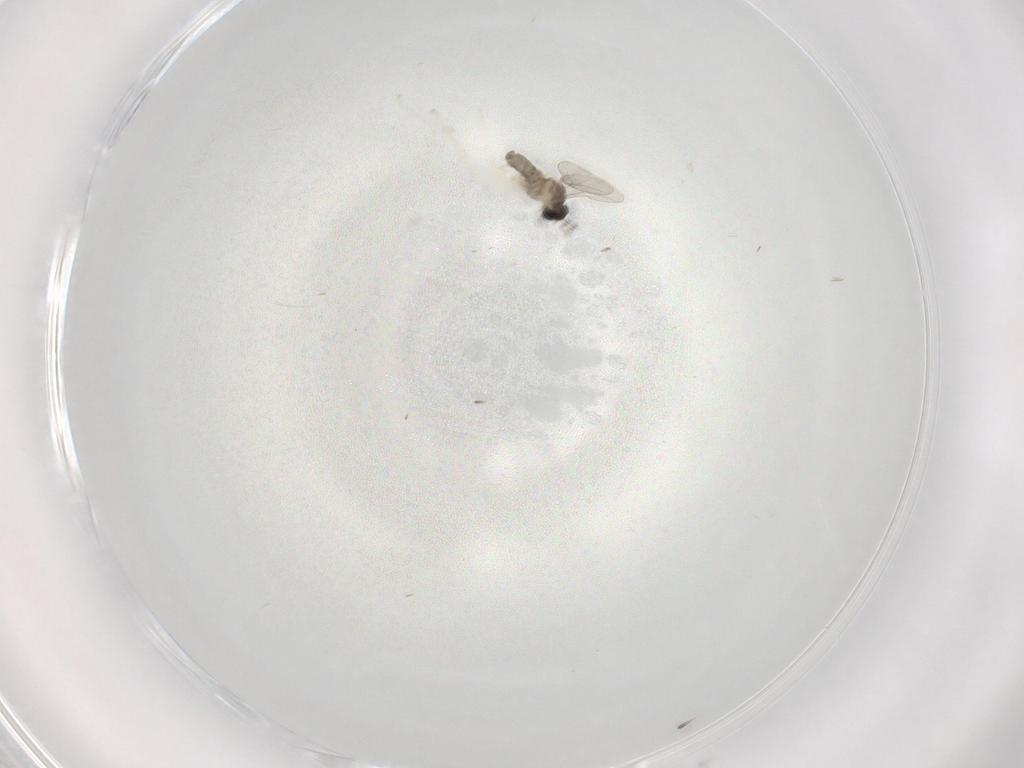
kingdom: Animalia
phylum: Arthropoda
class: Insecta
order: Diptera
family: Cecidomyiidae
